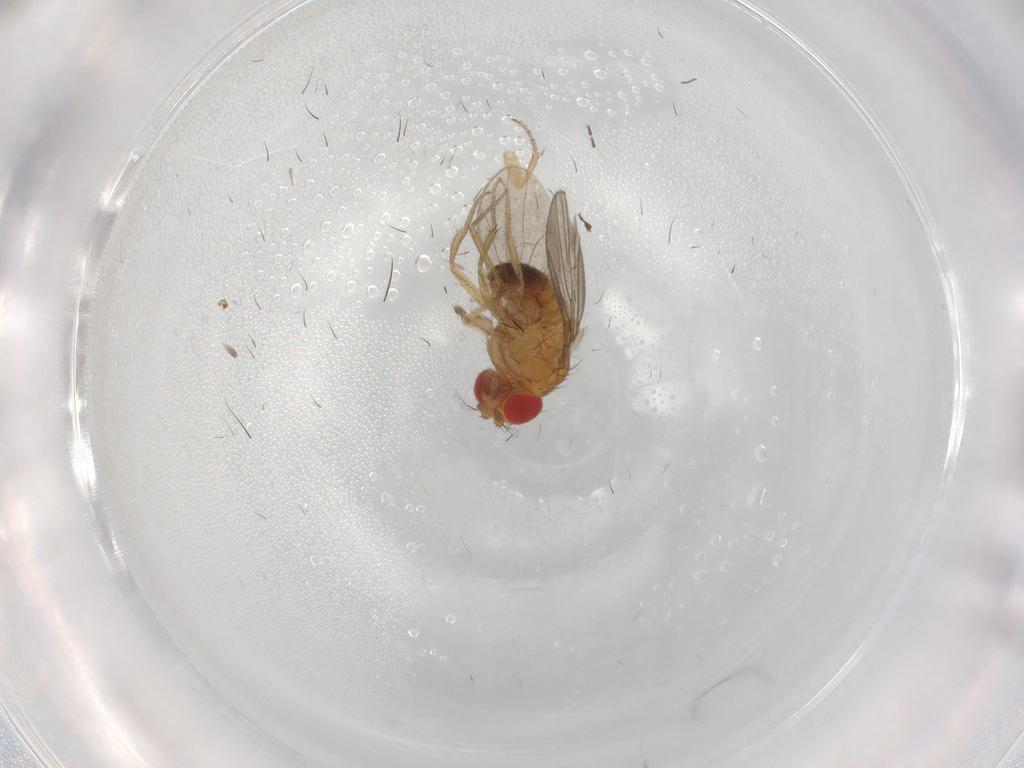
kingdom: Animalia
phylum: Arthropoda
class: Insecta
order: Diptera
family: Drosophilidae
